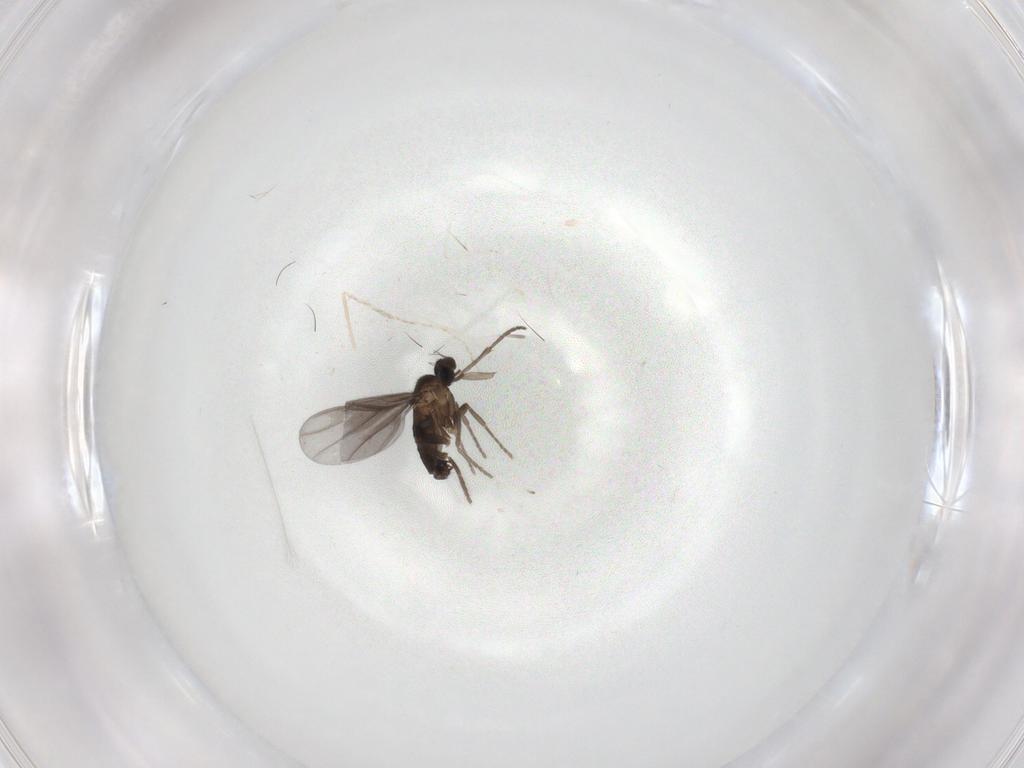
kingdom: Animalia
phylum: Arthropoda
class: Insecta
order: Diptera
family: Phoridae
